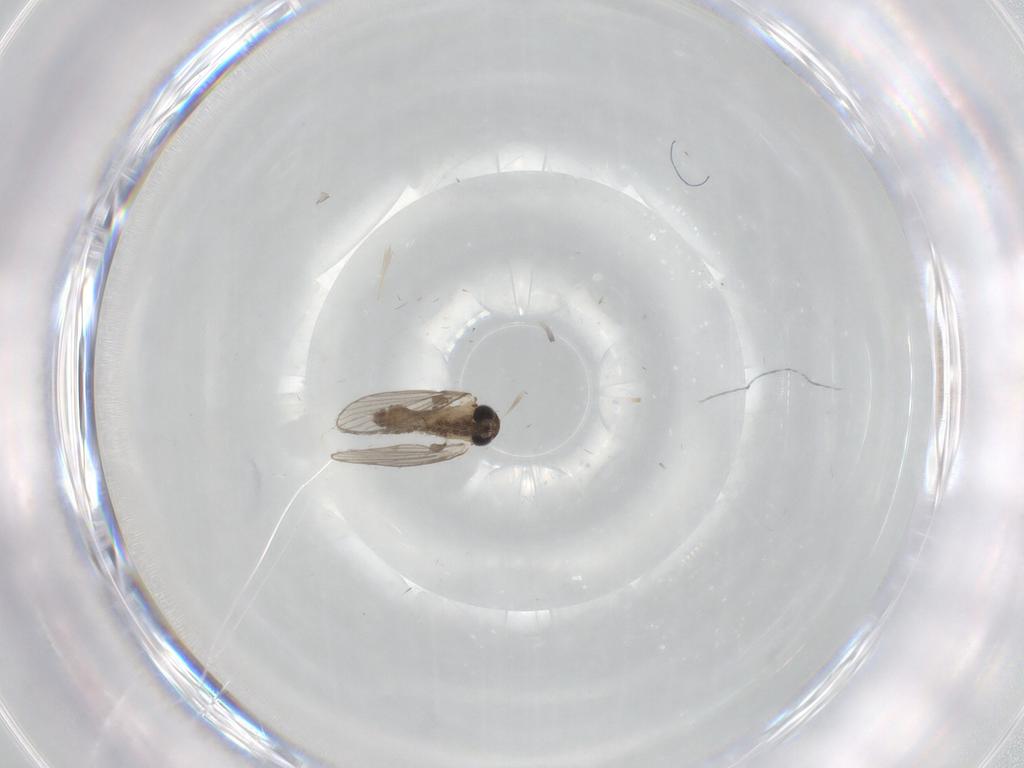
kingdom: Animalia
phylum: Arthropoda
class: Insecta
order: Diptera
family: Psychodidae
